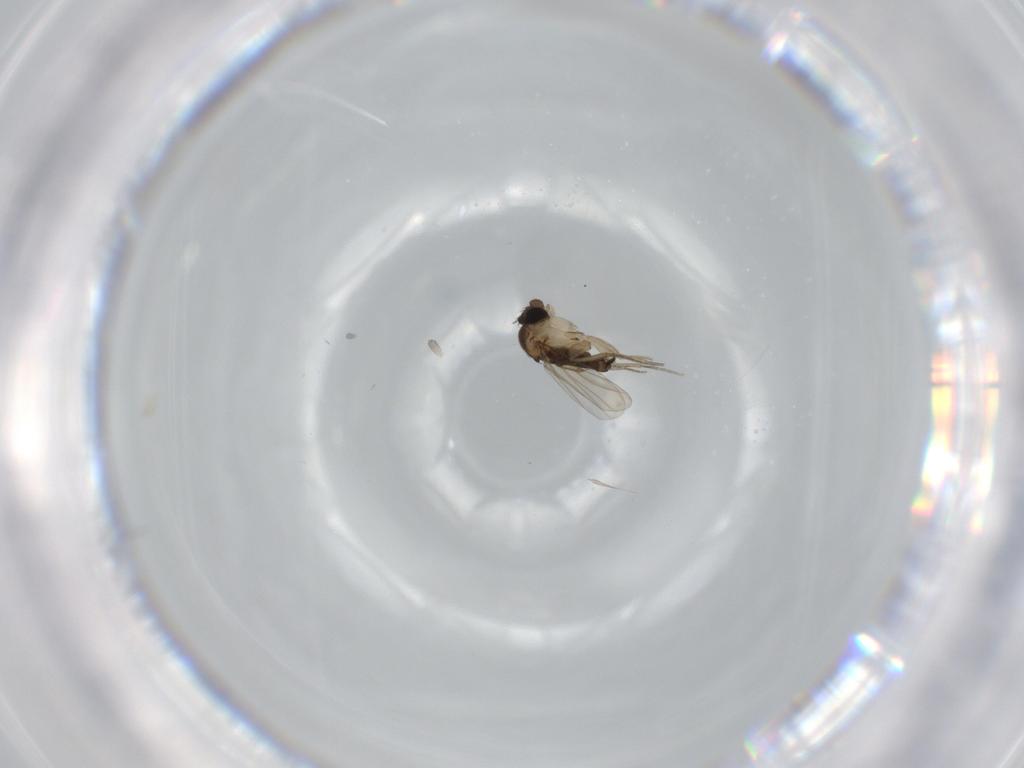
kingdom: Animalia
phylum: Arthropoda
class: Insecta
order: Diptera
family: Phoridae
